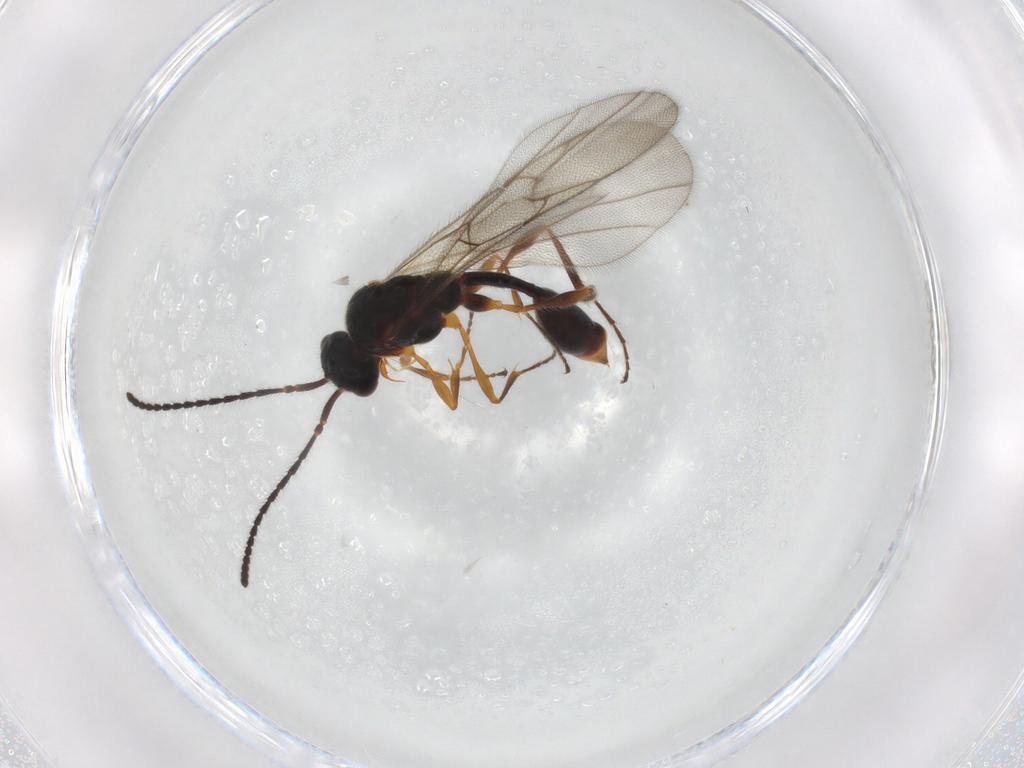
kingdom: Animalia
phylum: Arthropoda
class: Insecta
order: Hymenoptera
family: Diapriidae
